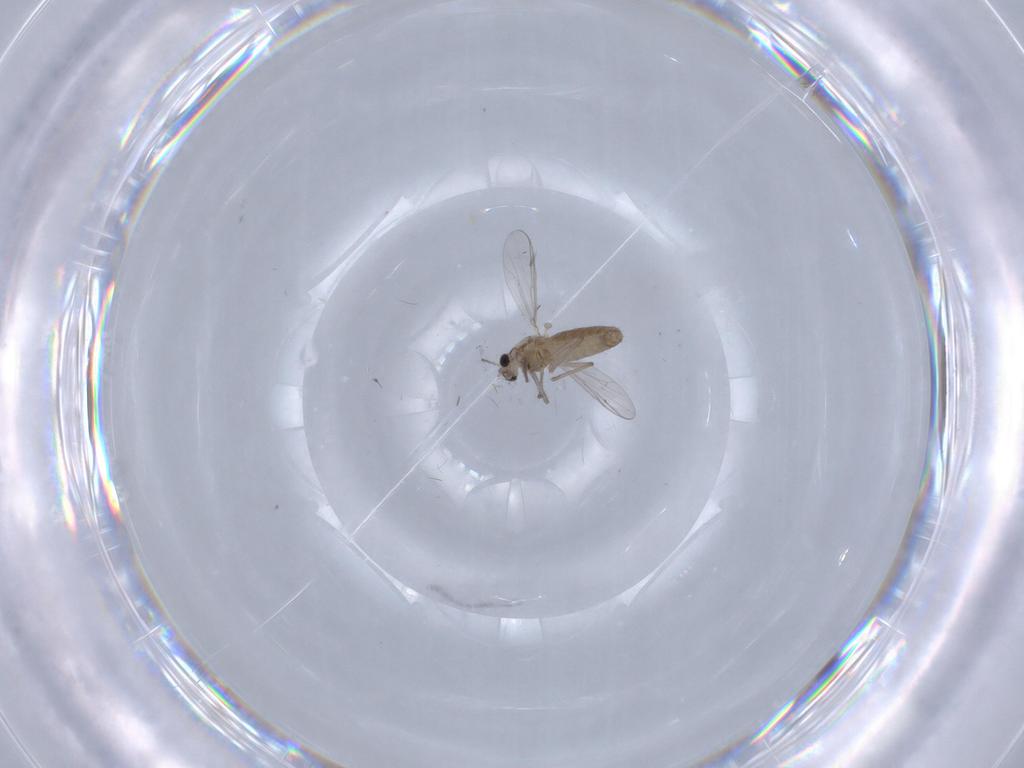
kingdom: Animalia
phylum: Arthropoda
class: Insecta
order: Diptera
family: Chironomidae
